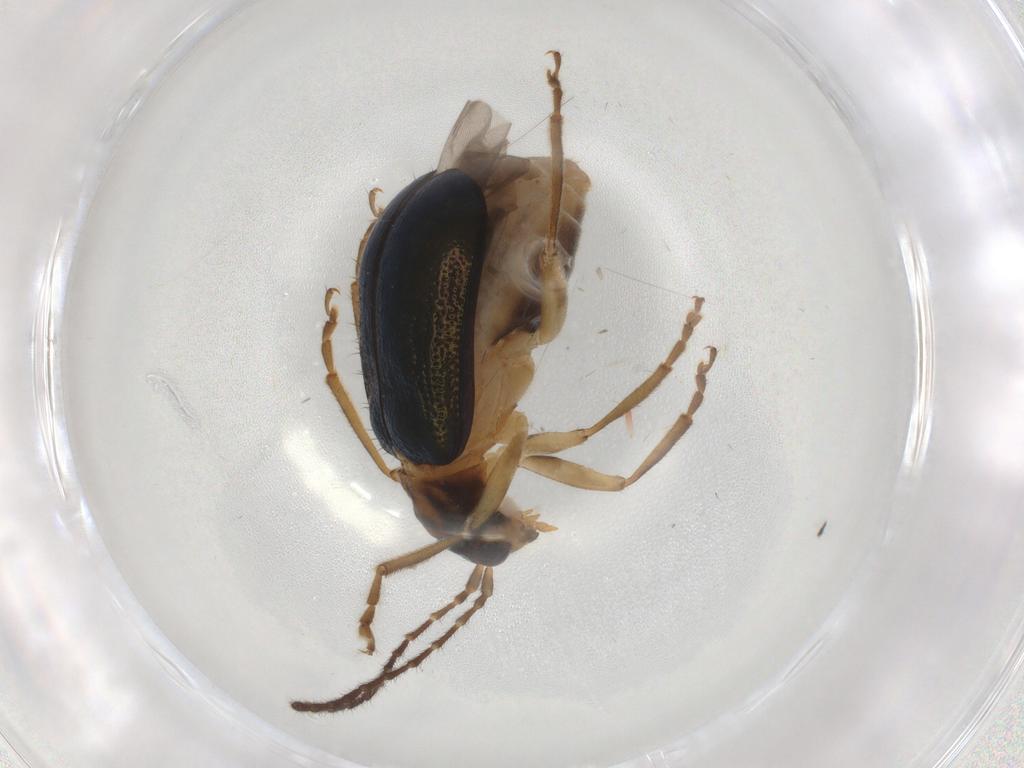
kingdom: Animalia
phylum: Arthropoda
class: Insecta
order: Coleoptera
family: Chrysomelidae
